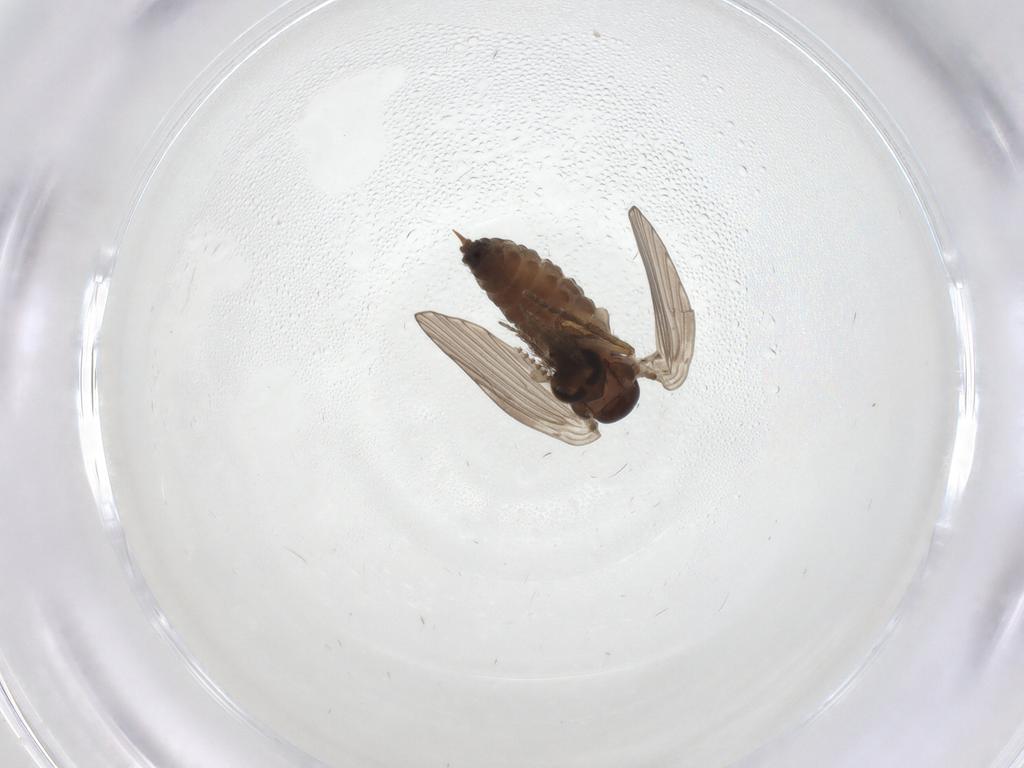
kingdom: Animalia
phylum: Arthropoda
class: Insecta
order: Diptera
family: Psychodidae
